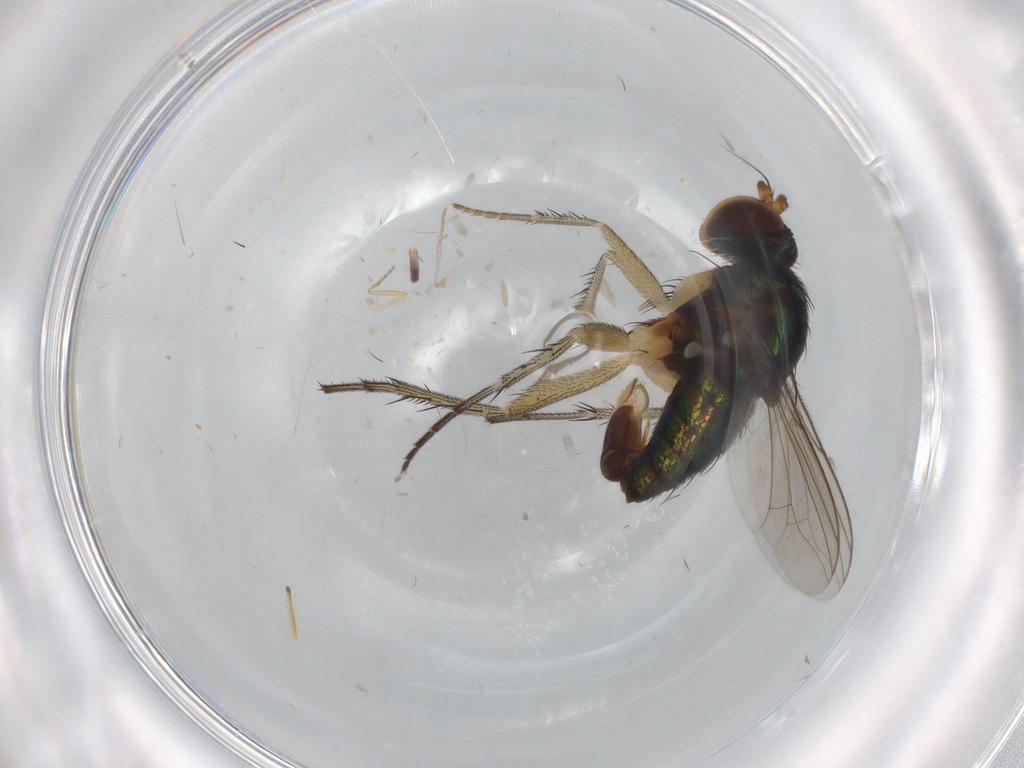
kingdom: Animalia
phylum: Arthropoda
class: Insecta
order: Diptera
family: Dolichopodidae
